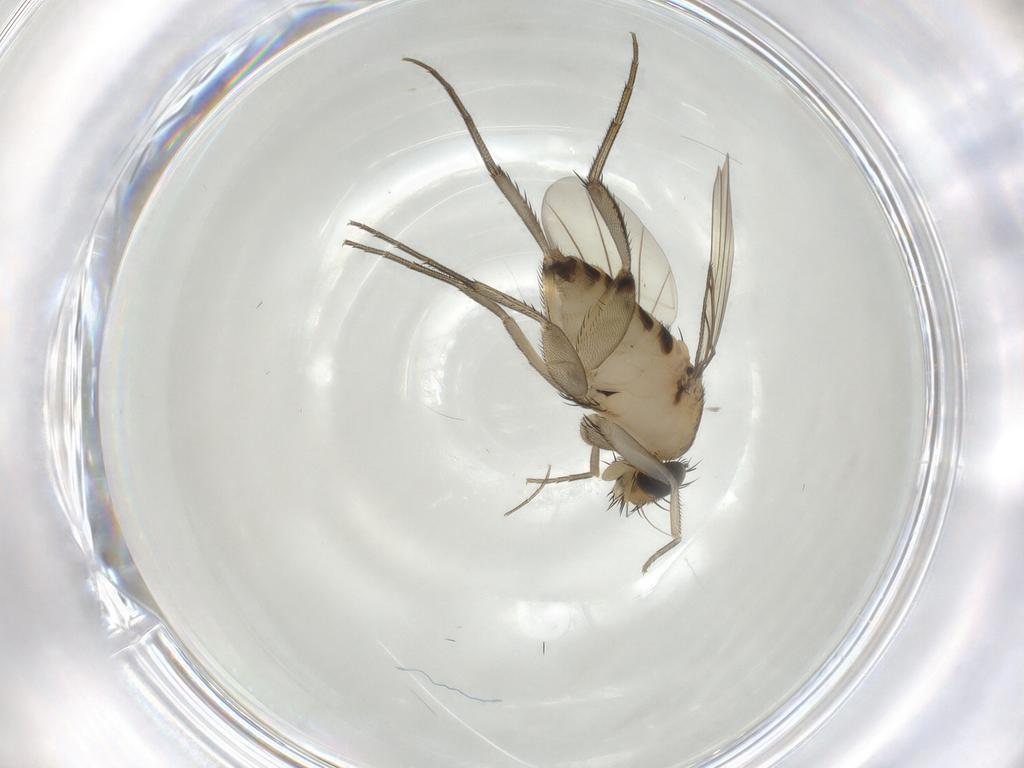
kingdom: Animalia
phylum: Arthropoda
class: Insecta
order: Diptera
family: Phoridae
